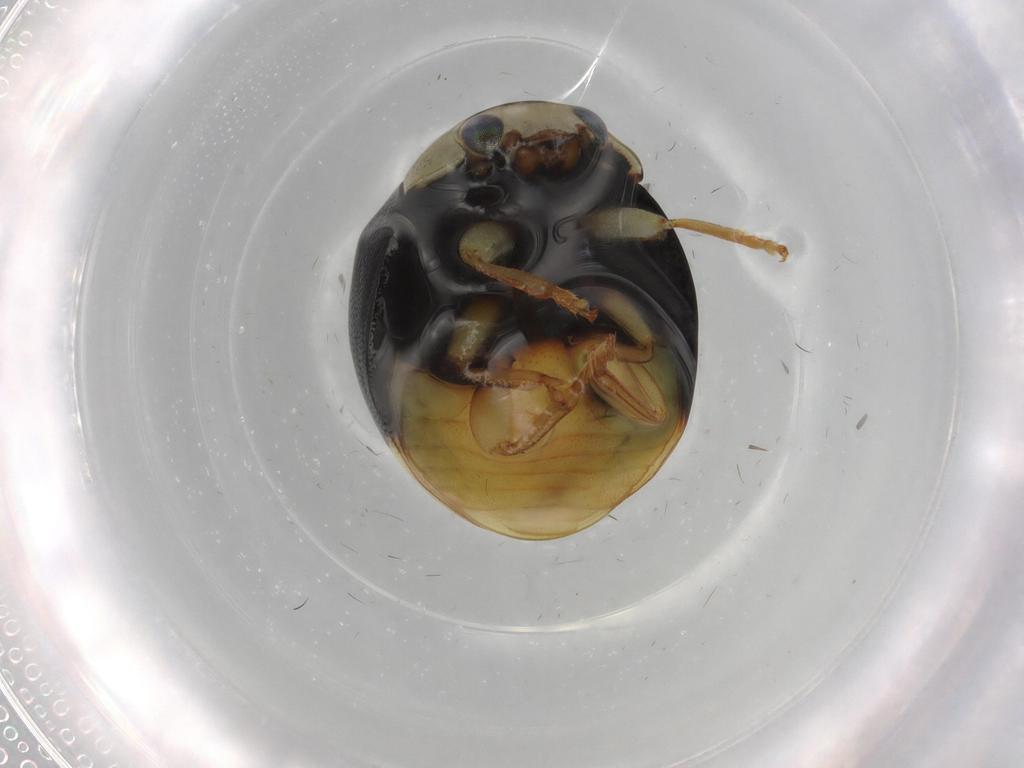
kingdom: Animalia
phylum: Arthropoda
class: Insecta
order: Coleoptera
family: Coccinellidae
